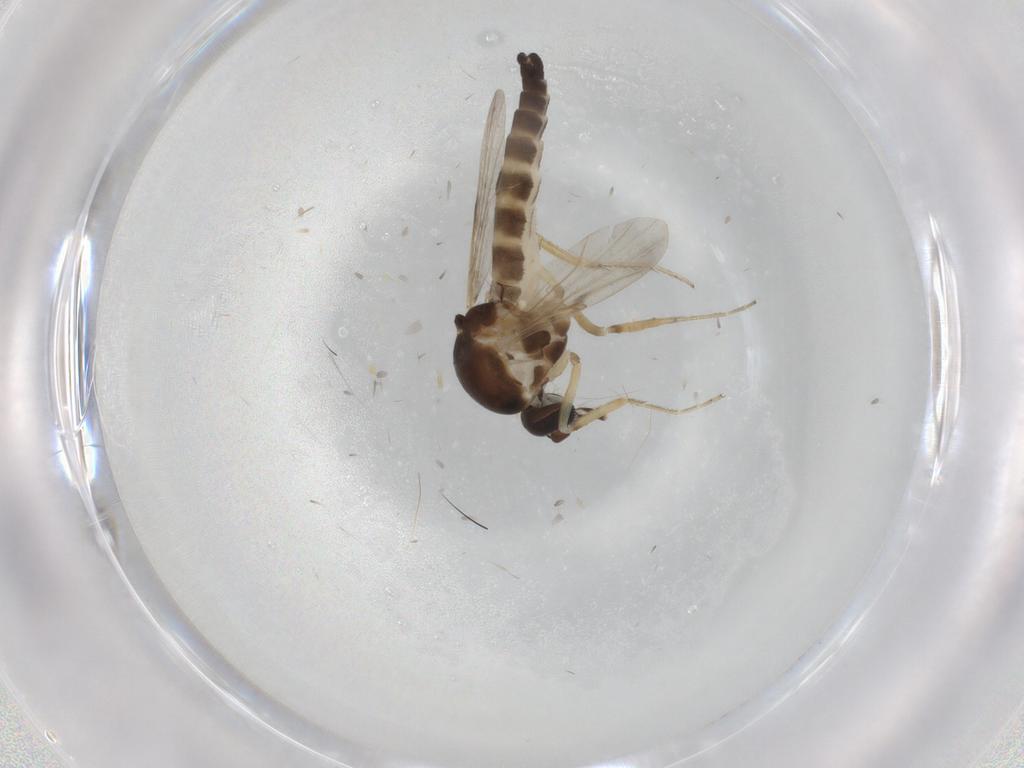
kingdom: Animalia
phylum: Arthropoda
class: Insecta
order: Diptera
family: Ceratopogonidae
